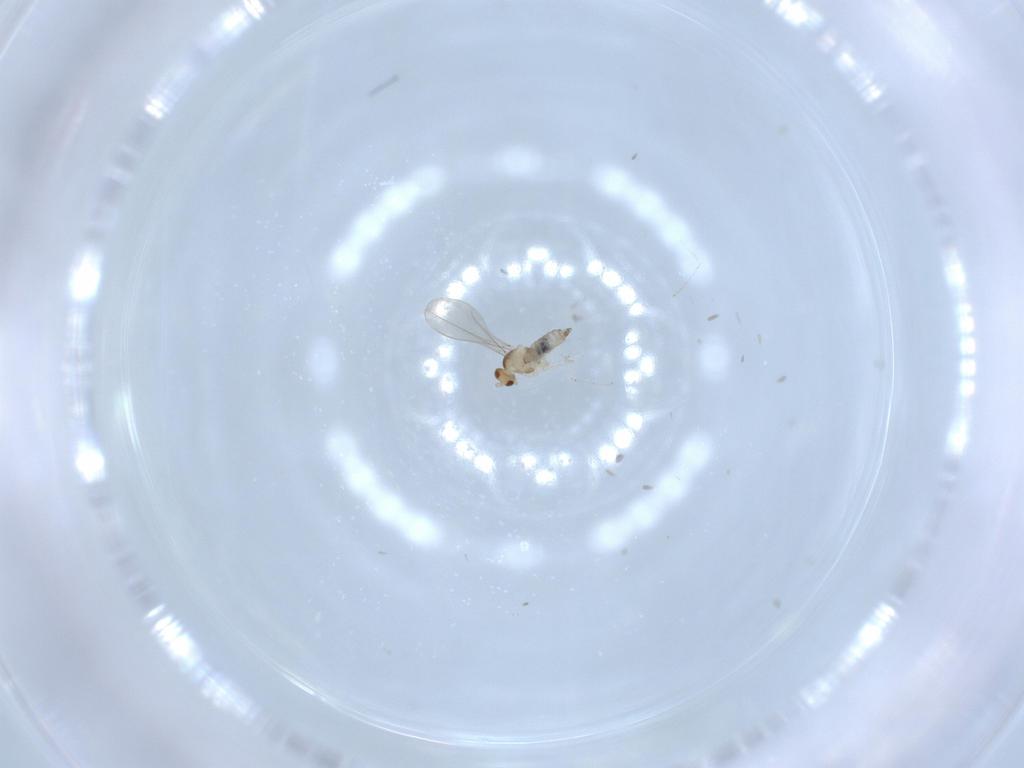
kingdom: Animalia
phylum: Arthropoda
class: Insecta
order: Diptera
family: Cecidomyiidae
